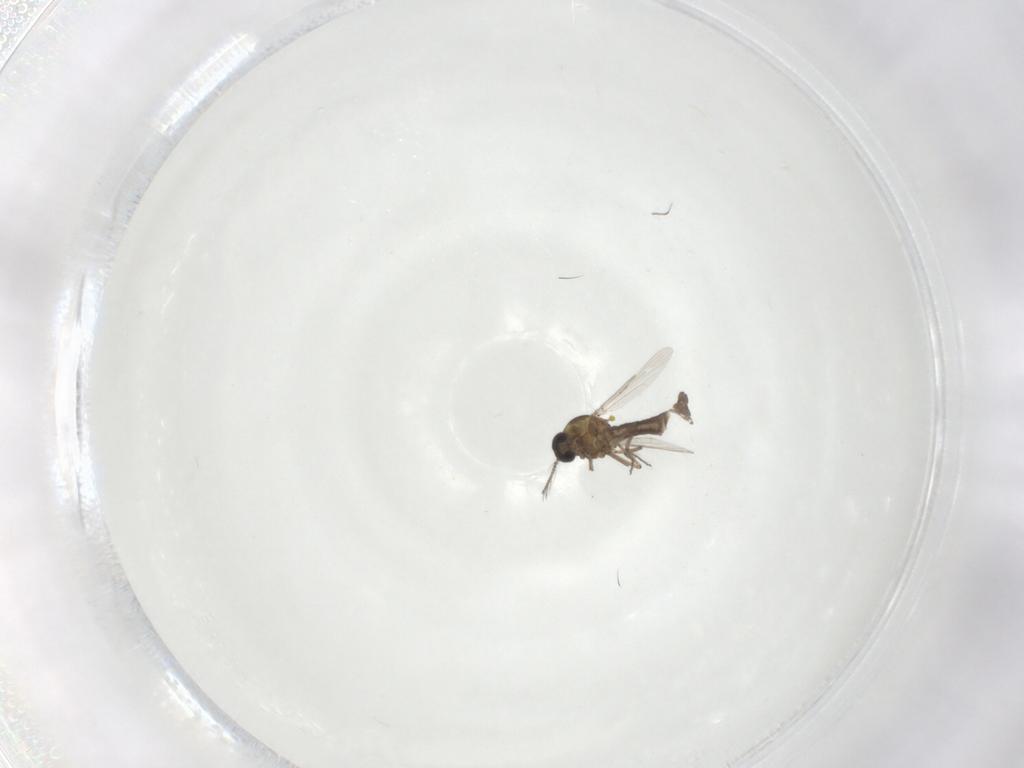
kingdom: Animalia
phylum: Arthropoda
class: Insecta
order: Diptera
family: Ceratopogonidae
